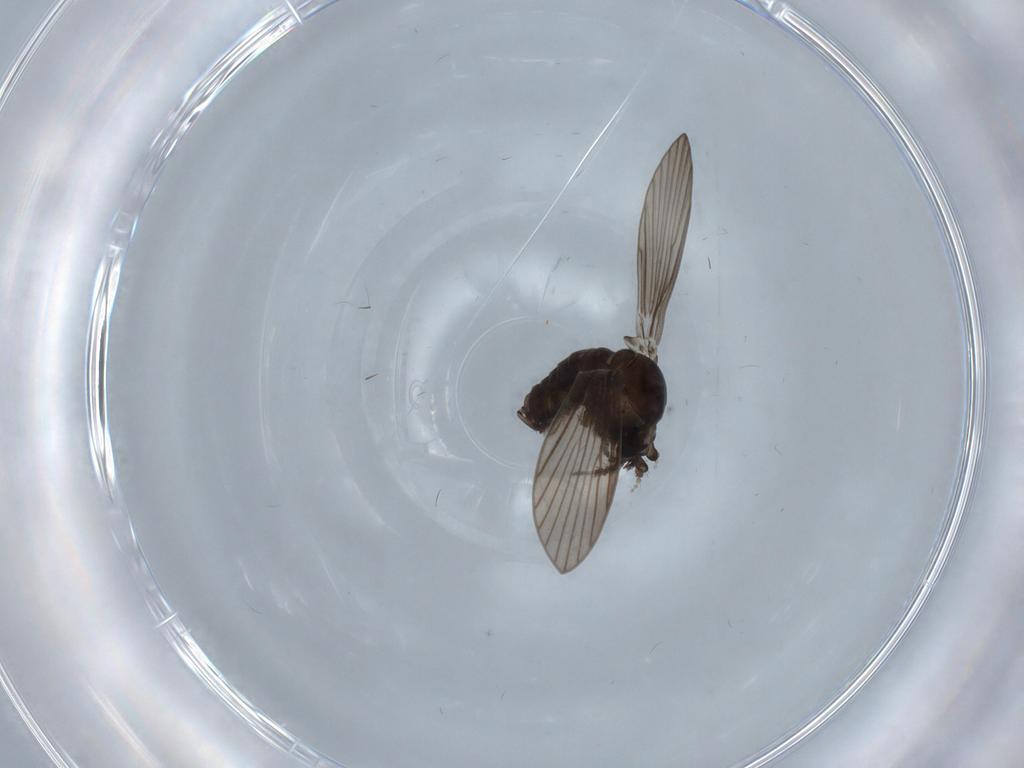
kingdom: Animalia
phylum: Arthropoda
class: Insecta
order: Diptera
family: Psychodidae
